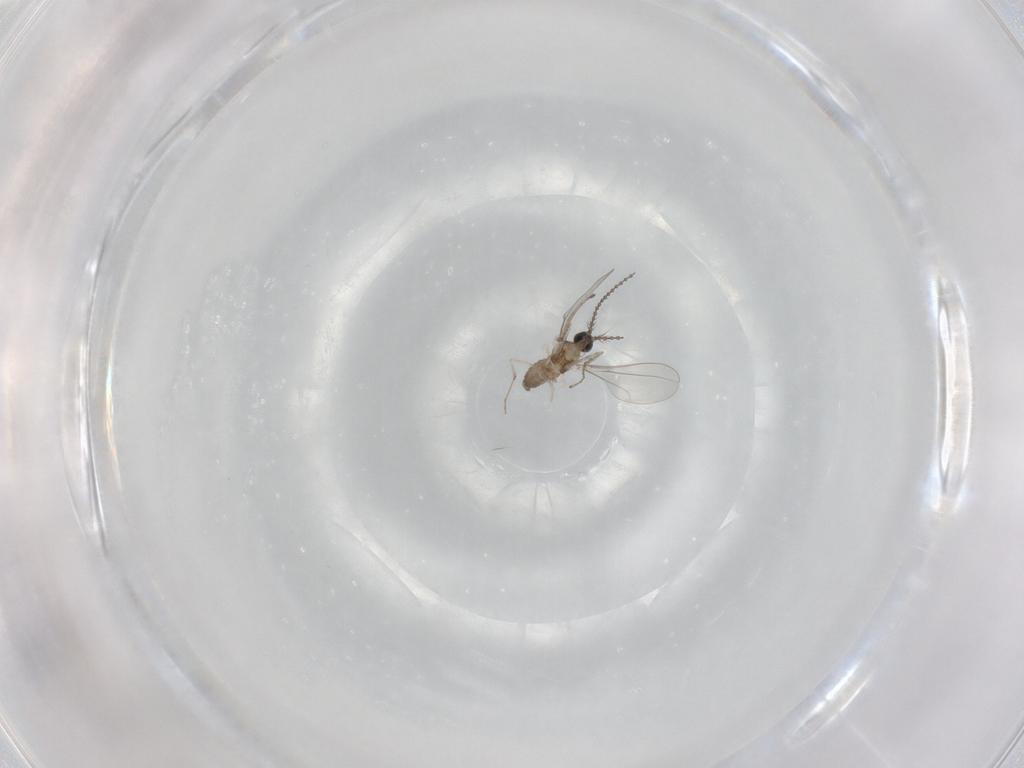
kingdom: Animalia
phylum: Arthropoda
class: Insecta
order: Diptera
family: Cecidomyiidae
